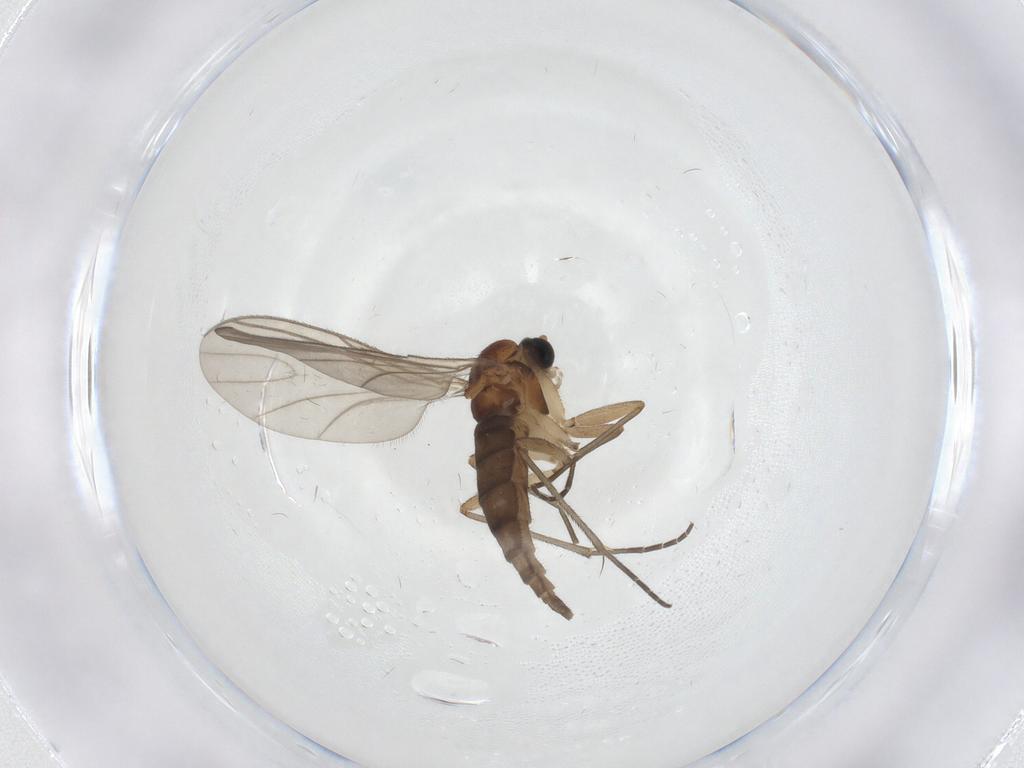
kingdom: Animalia
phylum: Arthropoda
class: Insecta
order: Diptera
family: Sciaridae
